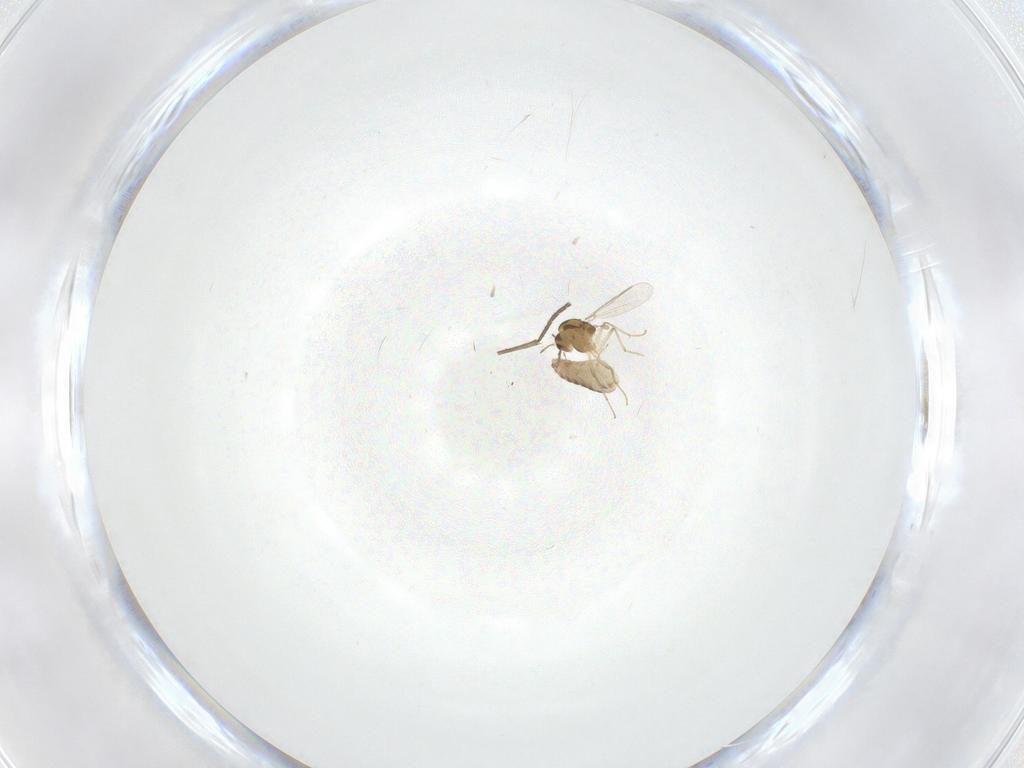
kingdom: Animalia
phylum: Arthropoda
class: Insecta
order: Diptera
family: Chironomidae
